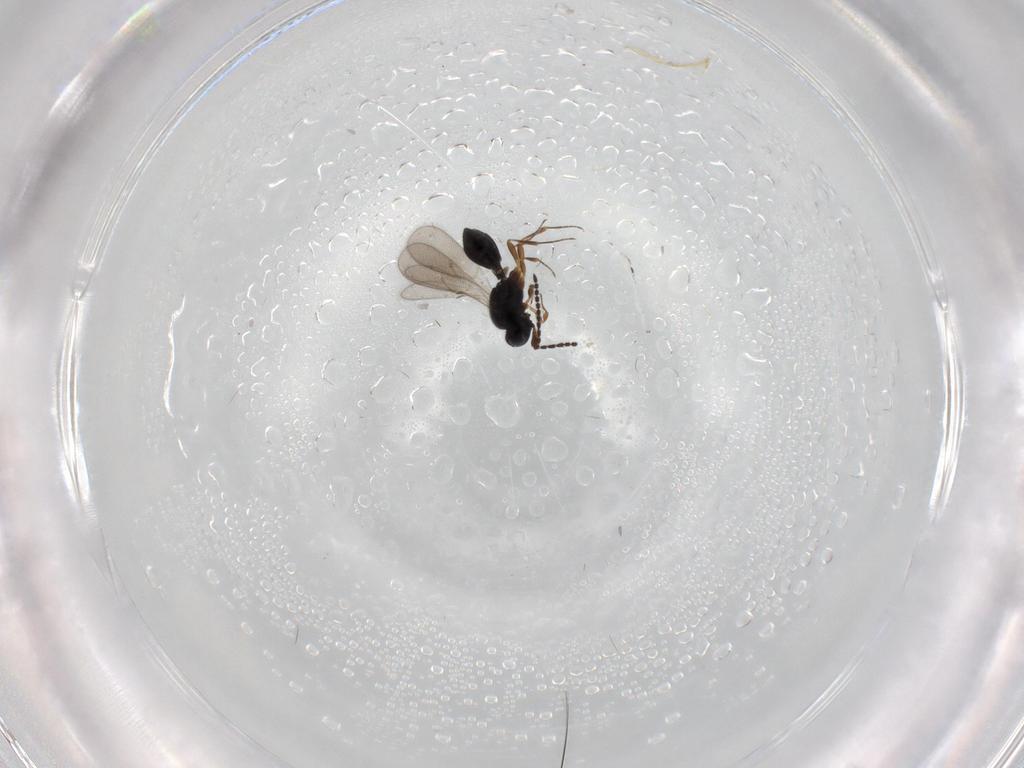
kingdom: Animalia
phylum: Arthropoda
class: Insecta
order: Hymenoptera
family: Scelionidae
